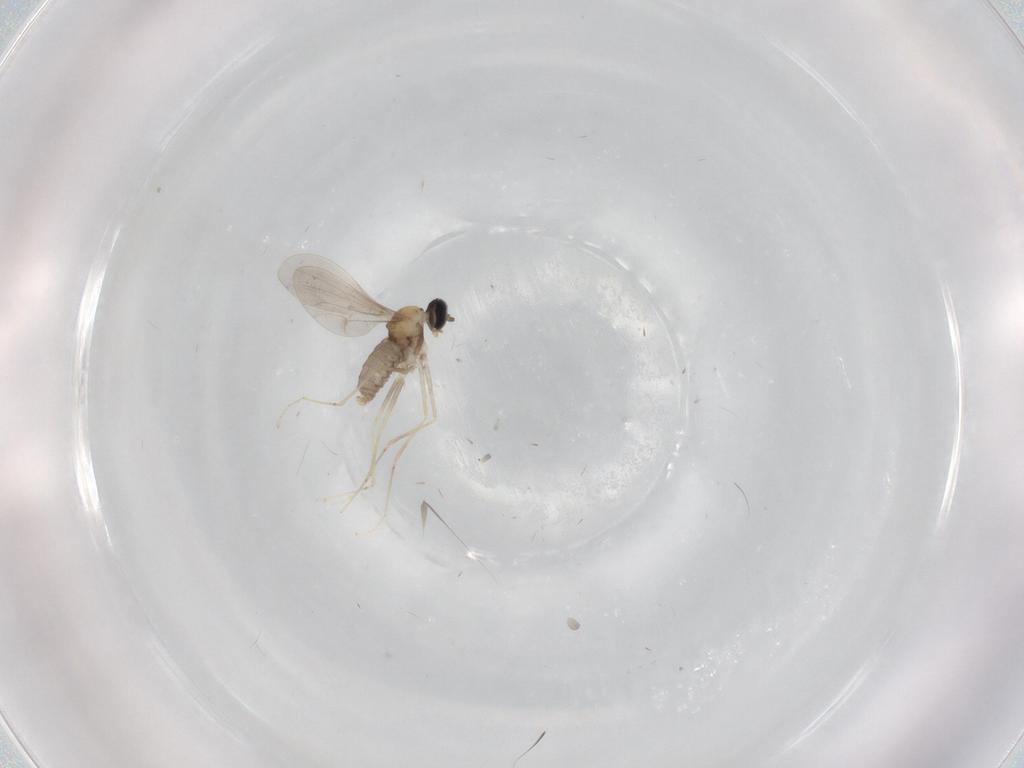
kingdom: Animalia
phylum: Arthropoda
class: Insecta
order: Diptera
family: Cecidomyiidae
